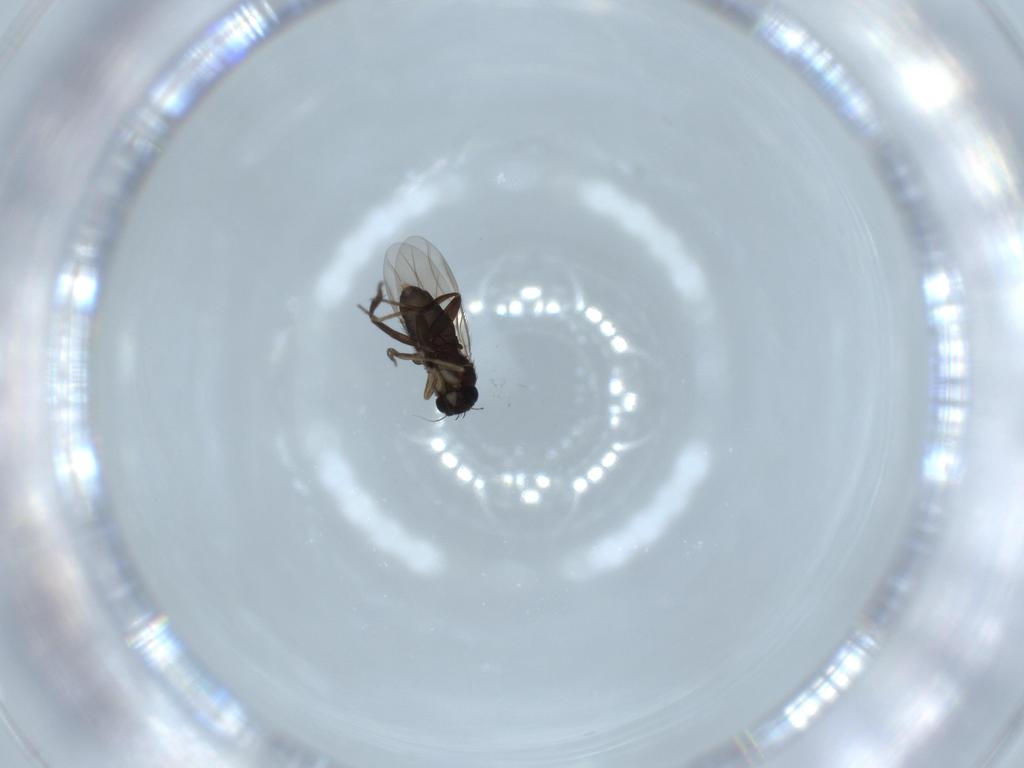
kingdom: Animalia
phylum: Arthropoda
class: Insecta
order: Diptera
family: Phoridae
